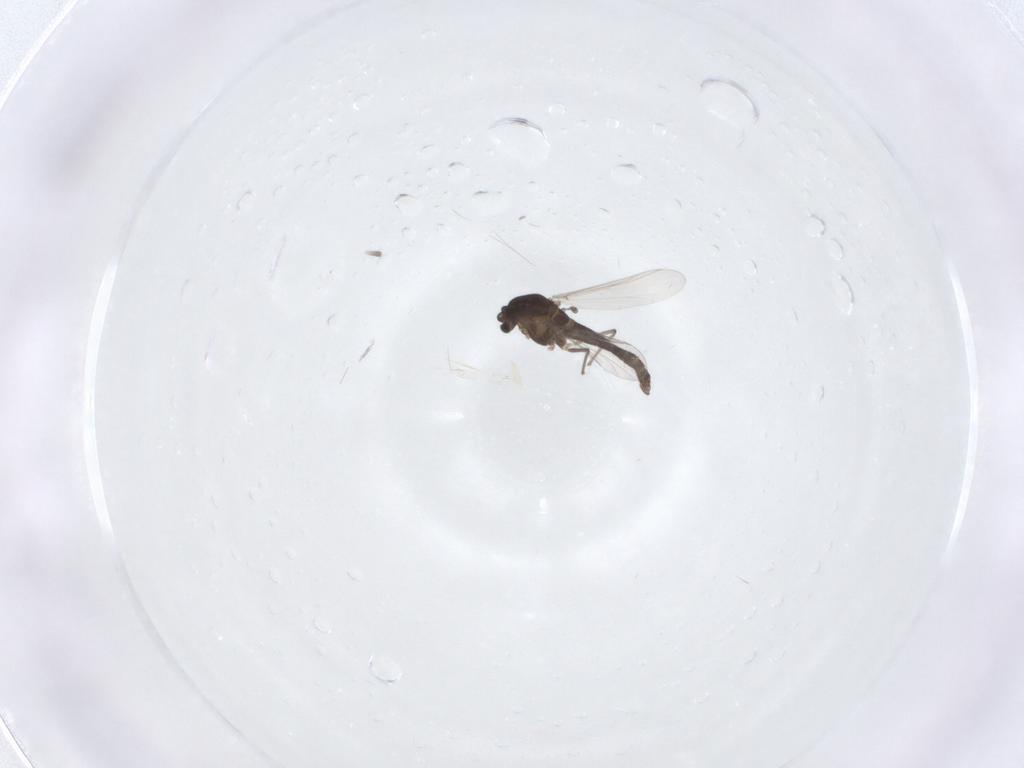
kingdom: Animalia
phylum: Arthropoda
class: Insecta
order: Diptera
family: Chironomidae
